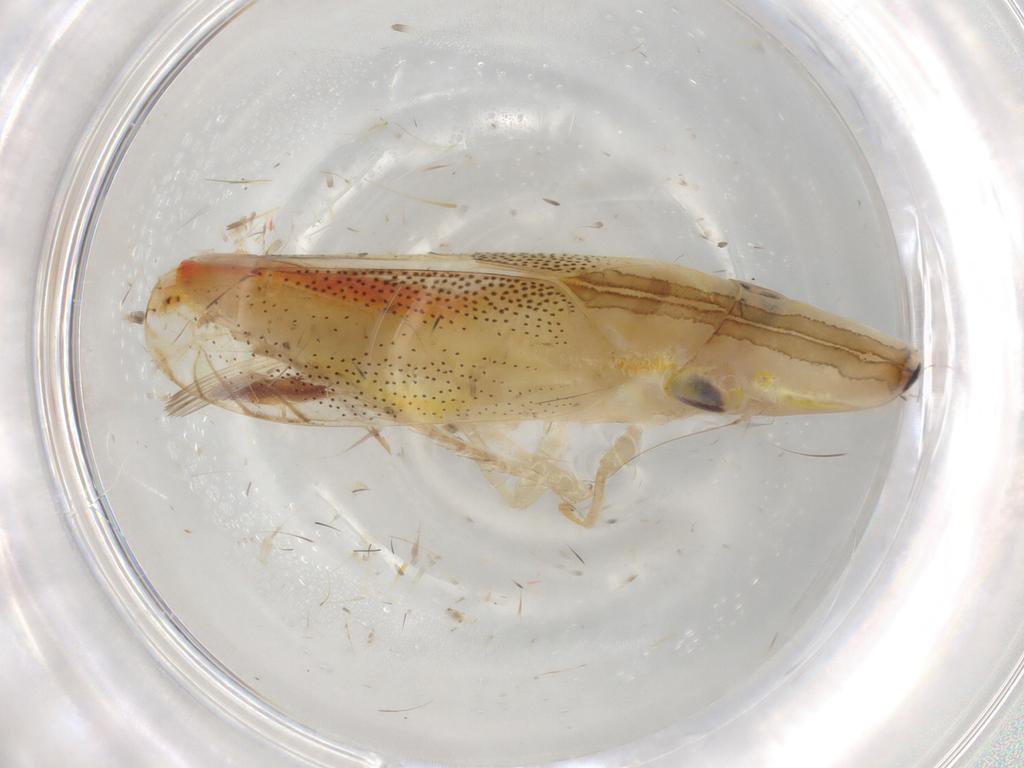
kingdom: Animalia
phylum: Arthropoda
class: Insecta
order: Hemiptera
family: Cicadellidae
